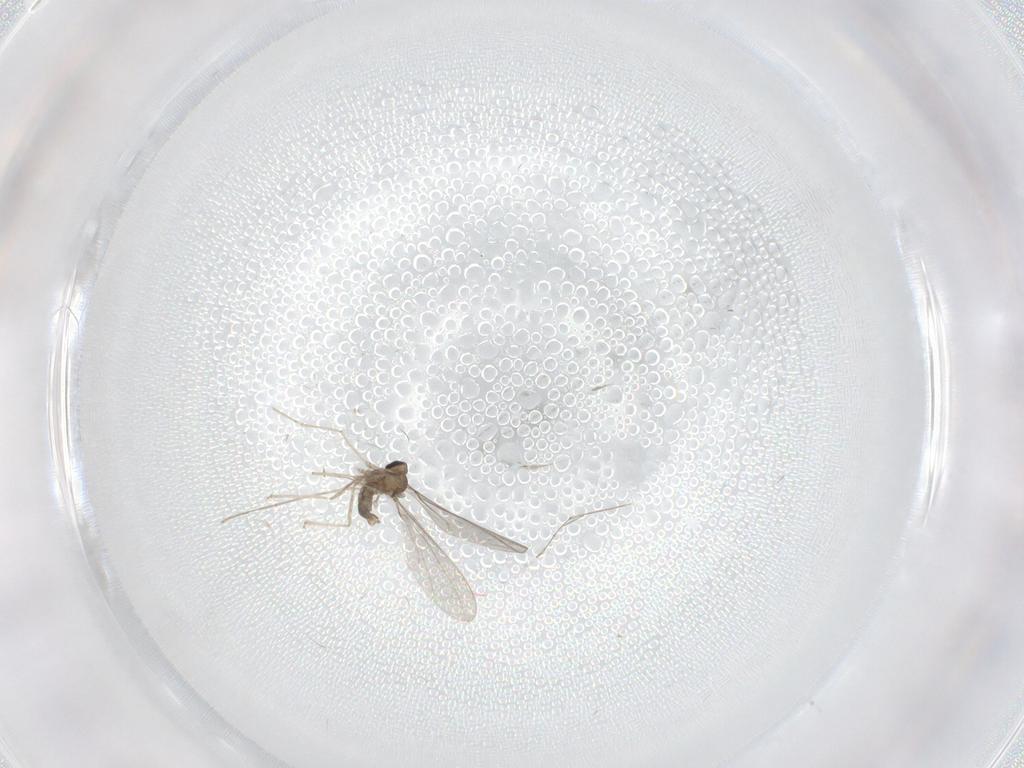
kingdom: Animalia
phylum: Arthropoda
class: Insecta
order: Diptera
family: Cecidomyiidae
